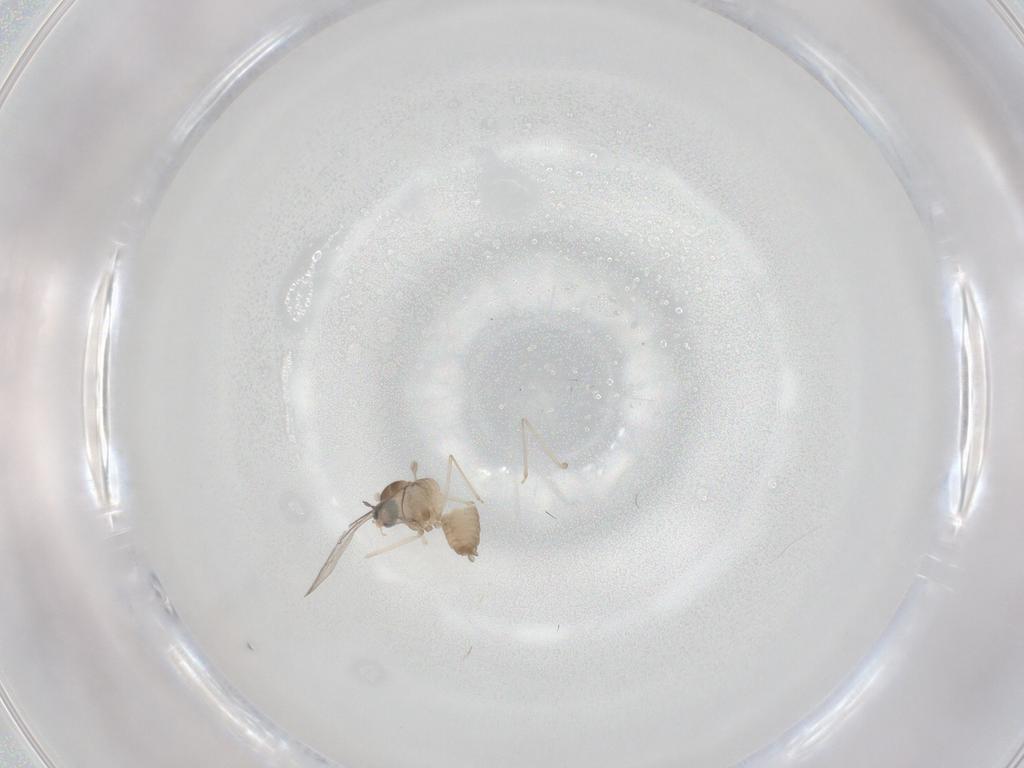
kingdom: Animalia
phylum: Arthropoda
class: Insecta
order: Diptera
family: Cecidomyiidae
